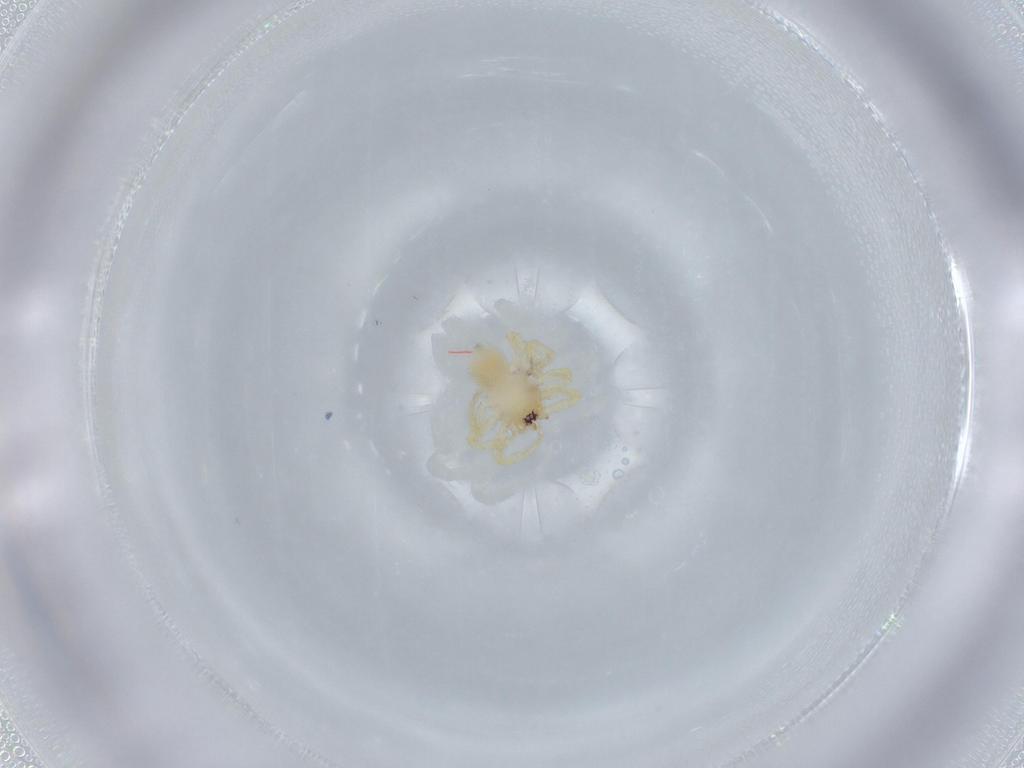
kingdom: Animalia
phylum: Arthropoda
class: Arachnida
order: Araneae
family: Oonopidae
